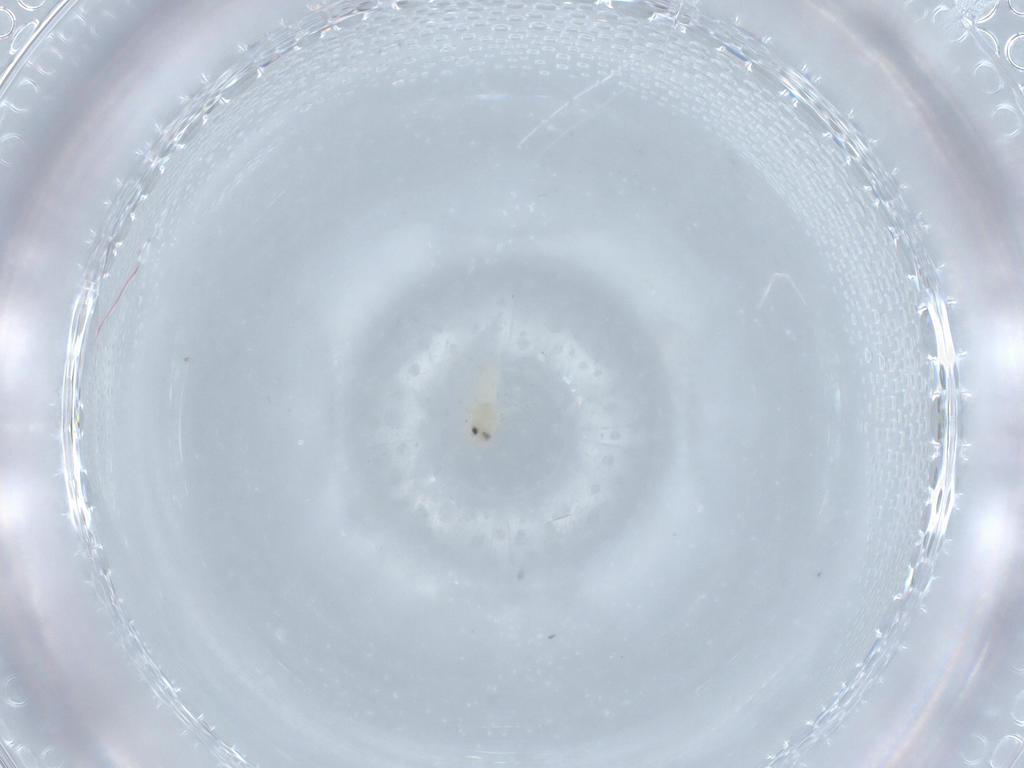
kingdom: Animalia
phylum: Arthropoda
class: Insecta
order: Hemiptera
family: Aleyrodidae
